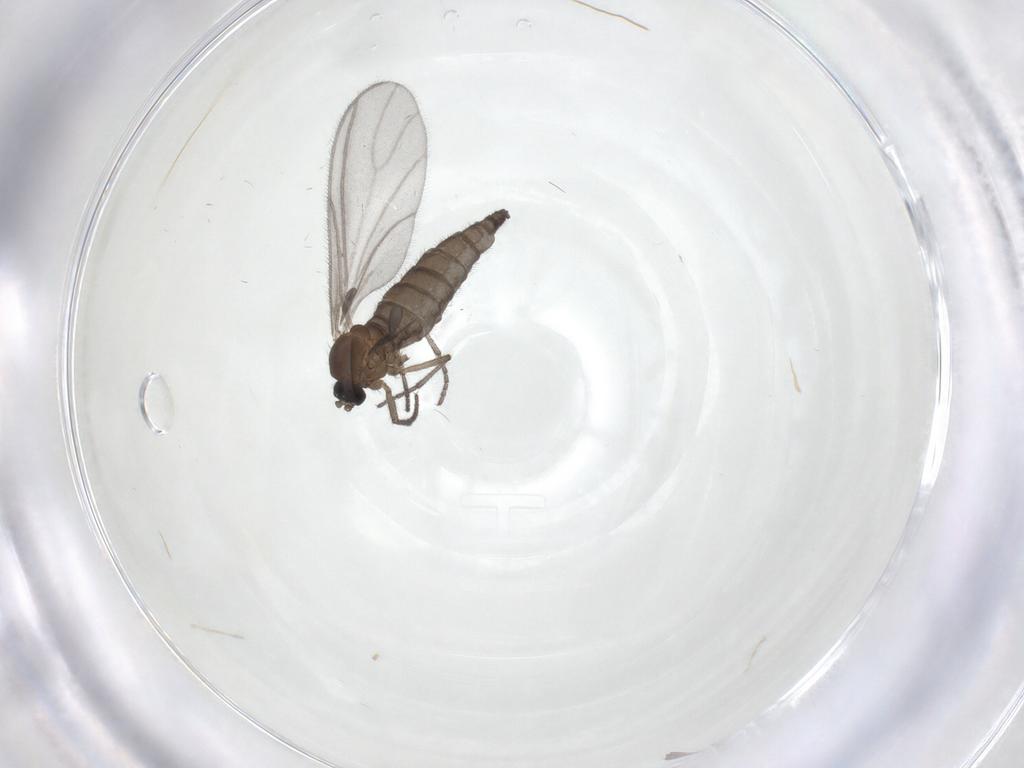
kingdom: Animalia
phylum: Arthropoda
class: Insecta
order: Diptera
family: Sciaridae
